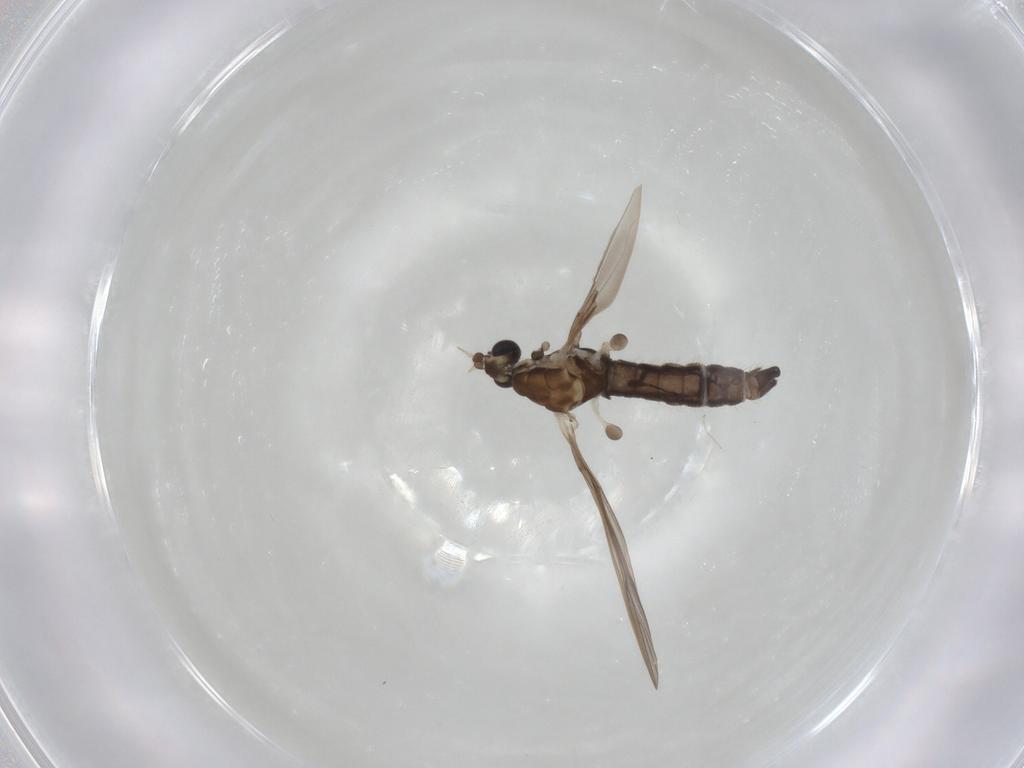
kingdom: Animalia
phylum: Arthropoda
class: Insecta
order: Diptera
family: Limoniidae
